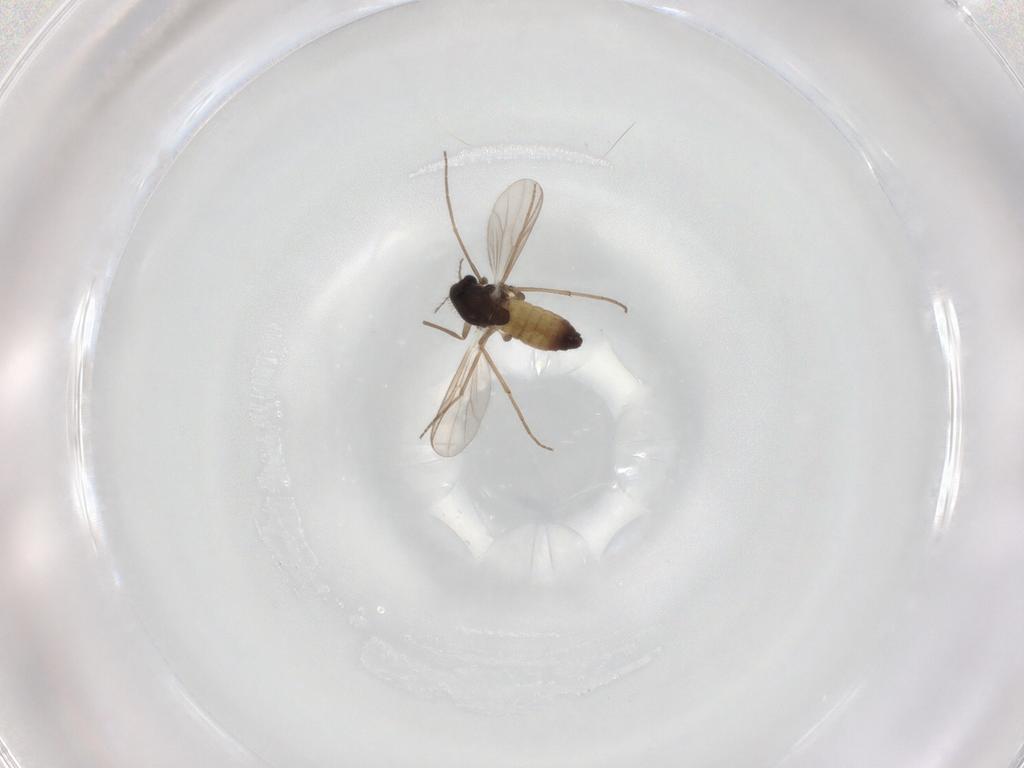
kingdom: Animalia
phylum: Arthropoda
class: Insecta
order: Diptera
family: Chironomidae
